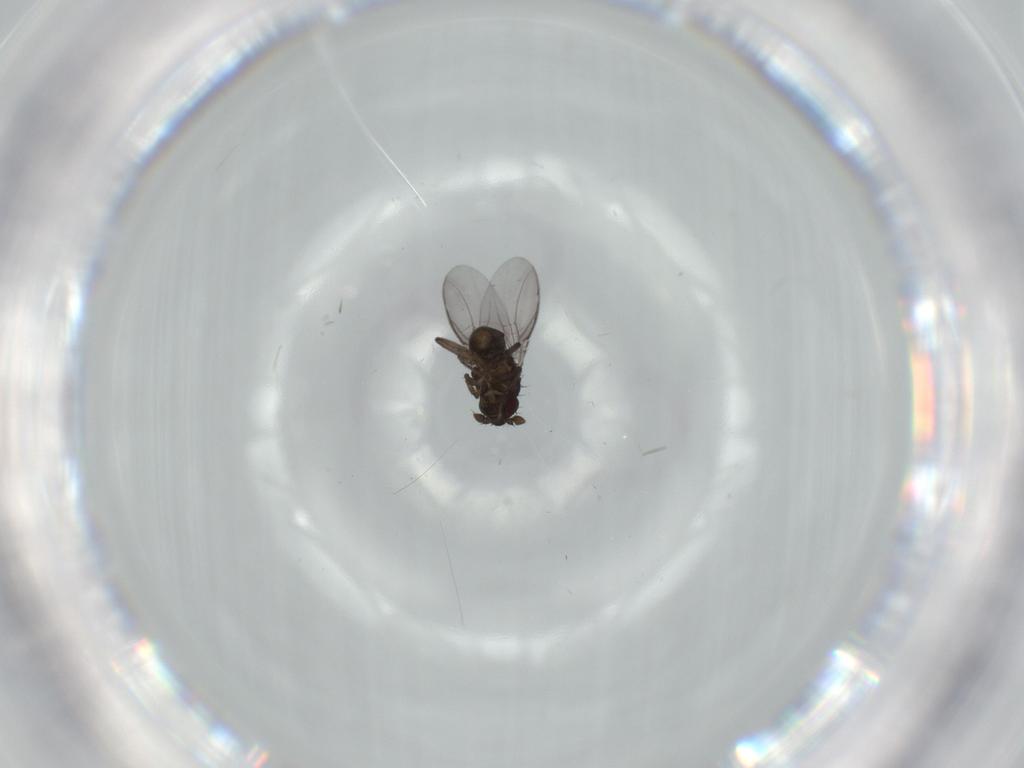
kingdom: Animalia
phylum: Arthropoda
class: Insecta
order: Diptera
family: Sphaeroceridae
